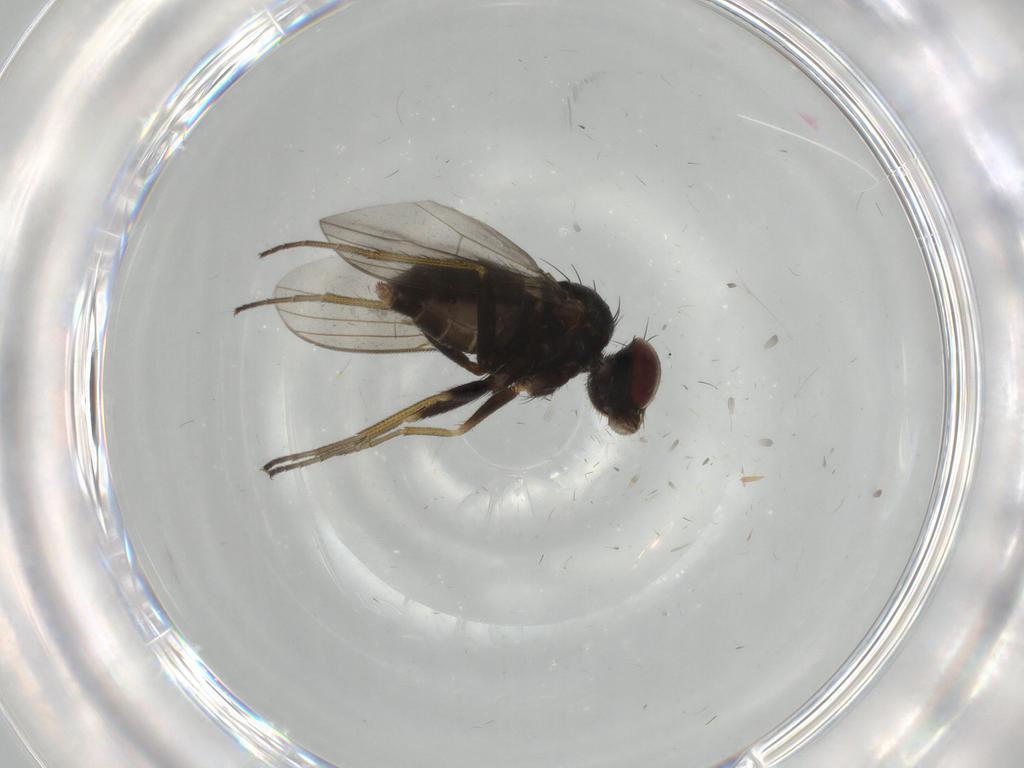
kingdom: Animalia
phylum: Arthropoda
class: Insecta
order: Diptera
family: Dolichopodidae
